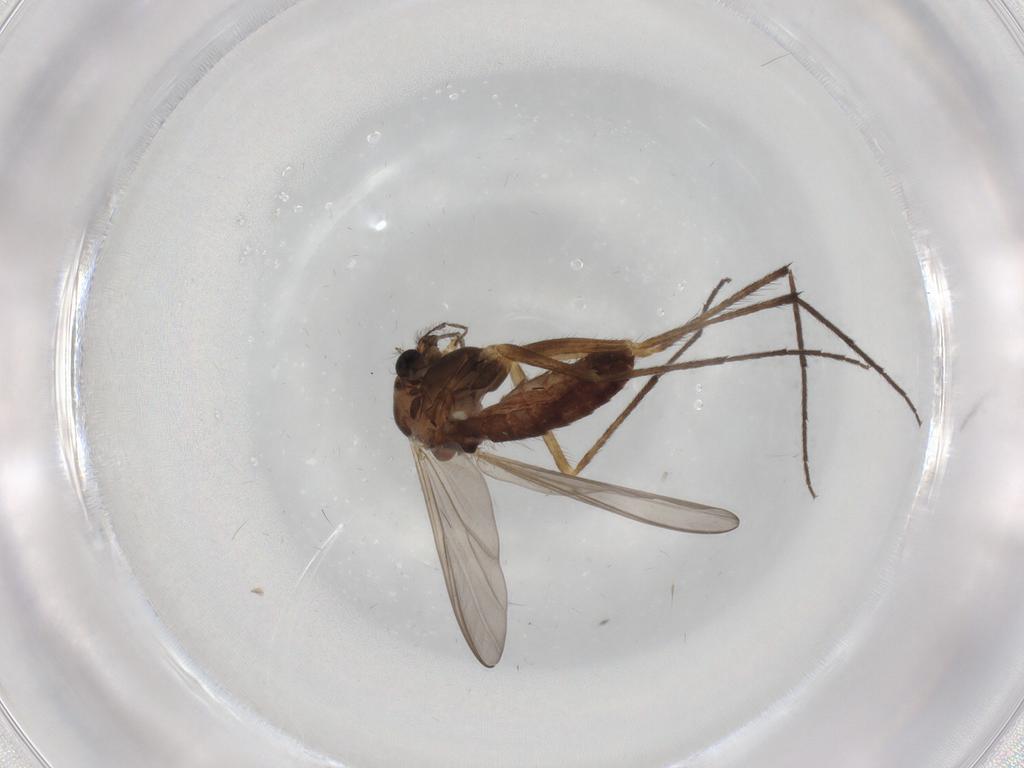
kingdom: Animalia
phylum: Arthropoda
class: Insecta
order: Diptera
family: Chironomidae
